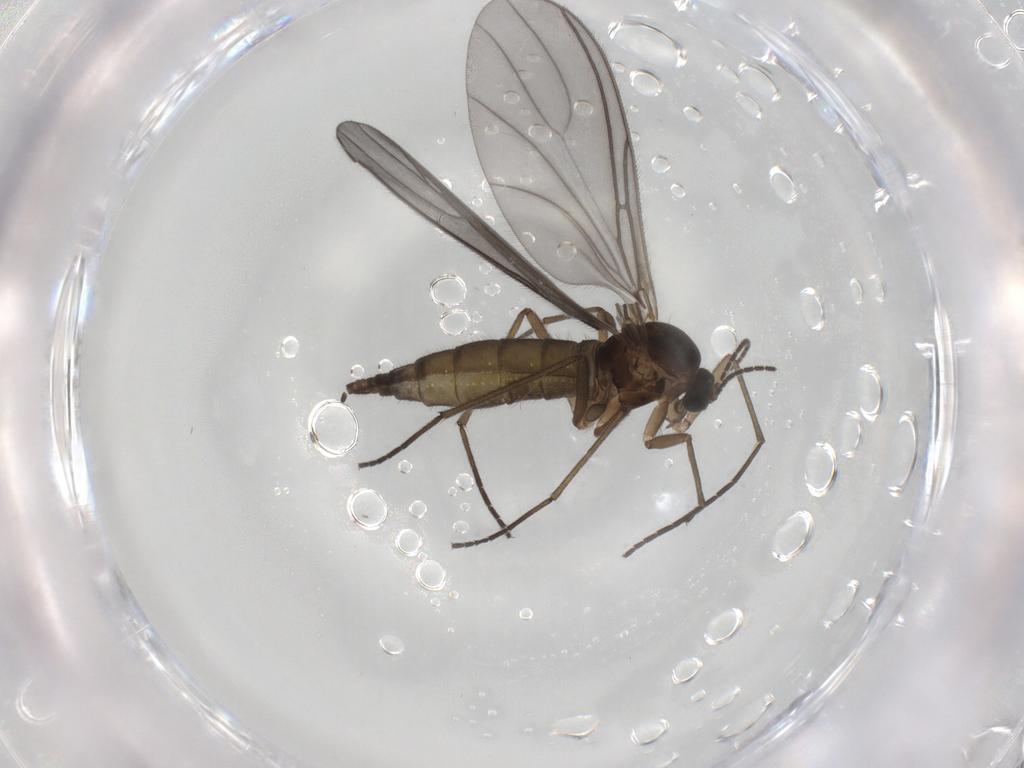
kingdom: Animalia
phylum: Arthropoda
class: Insecta
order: Diptera
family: Sciaridae
